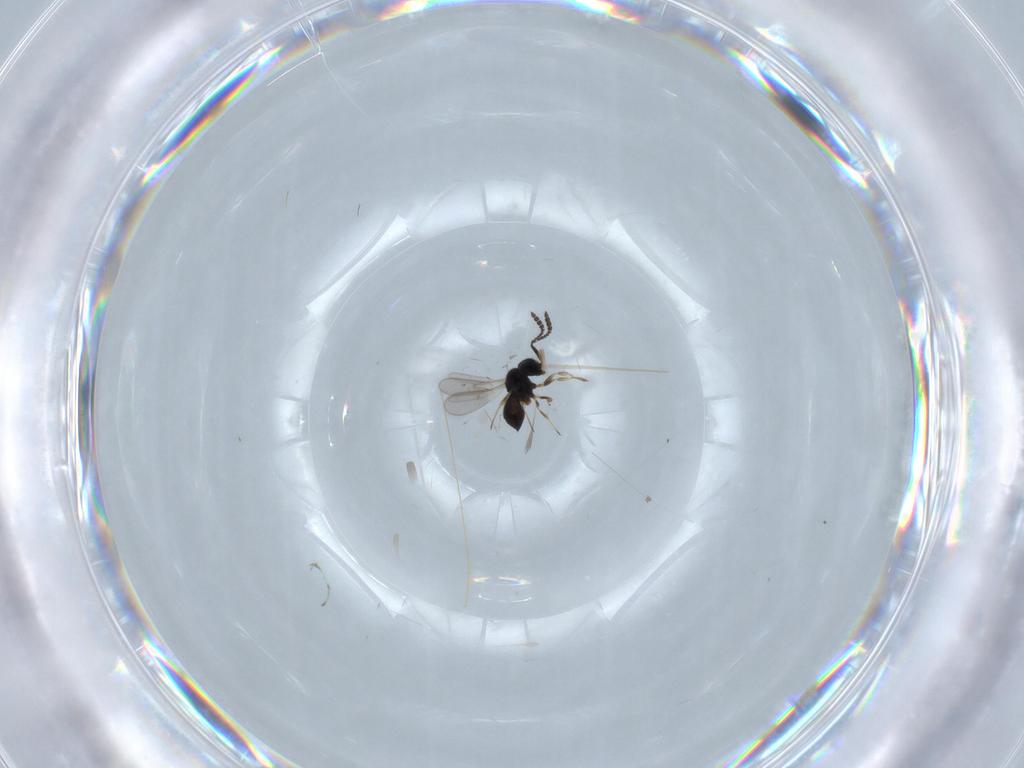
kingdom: Animalia
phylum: Arthropoda
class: Insecta
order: Hymenoptera
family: Scelionidae
